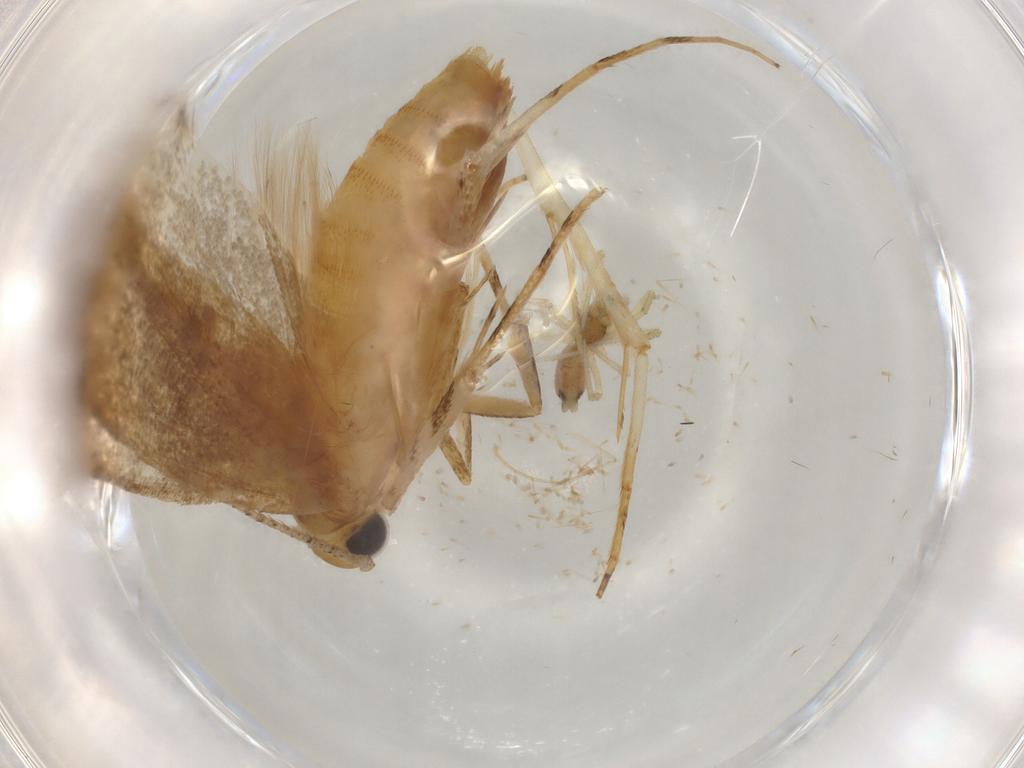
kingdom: Animalia
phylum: Arthropoda
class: Insecta
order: Lepidoptera
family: Lecithoceridae
